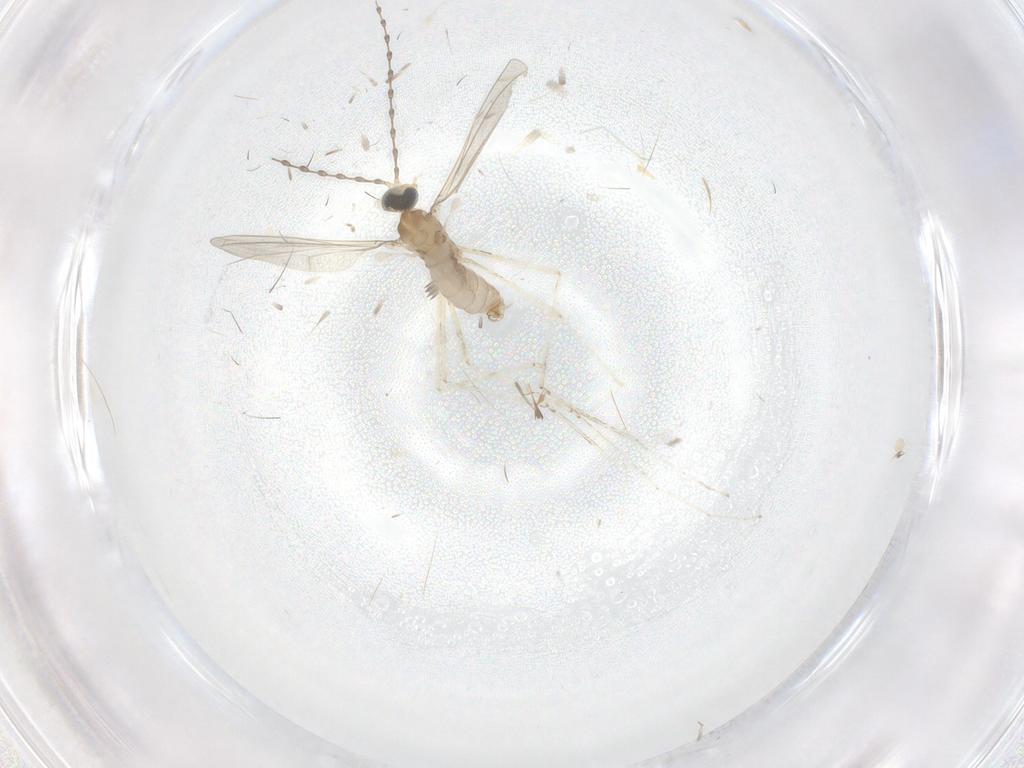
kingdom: Animalia
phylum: Arthropoda
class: Insecta
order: Diptera
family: Cecidomyiidae
